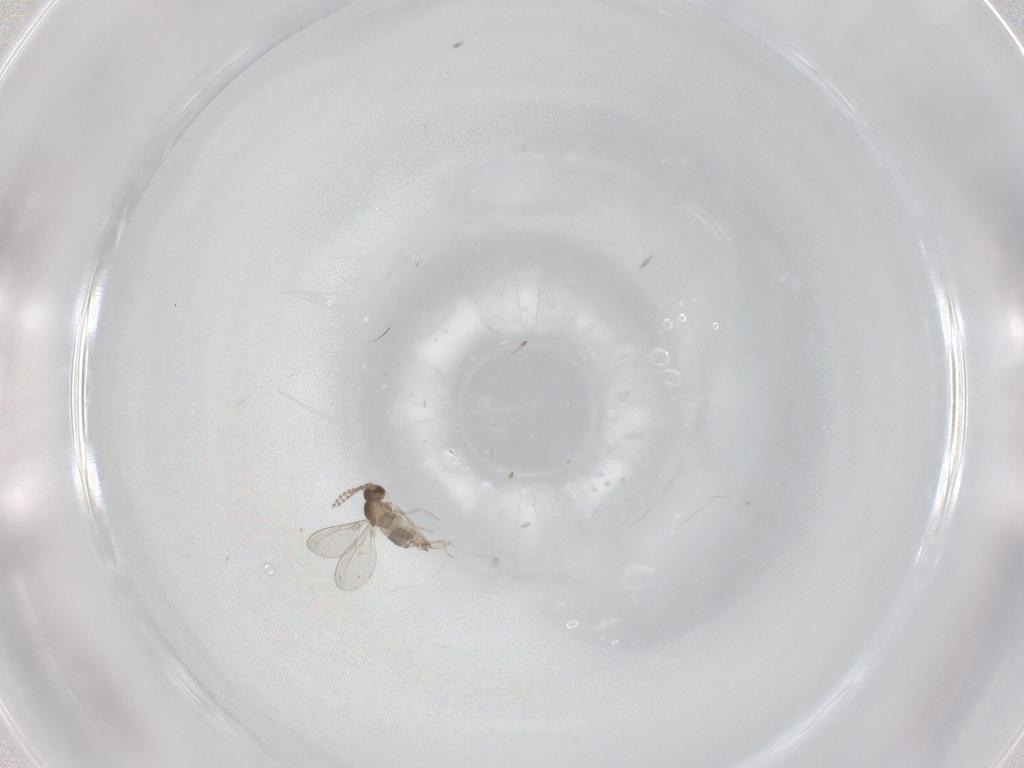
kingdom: Animalia
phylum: Arthropoda
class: Insecta
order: Diptera
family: Cecidomyiidae
